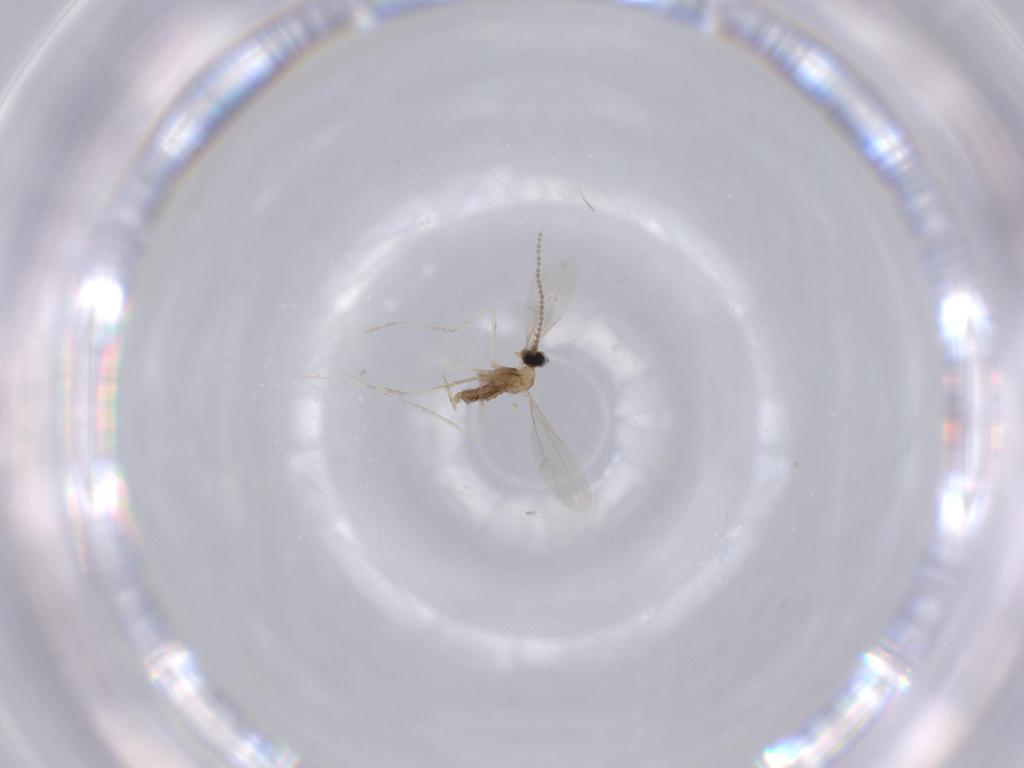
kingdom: Animalia
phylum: Arthropoda
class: Insecta
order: Diptera
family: Cecidomyiidae
